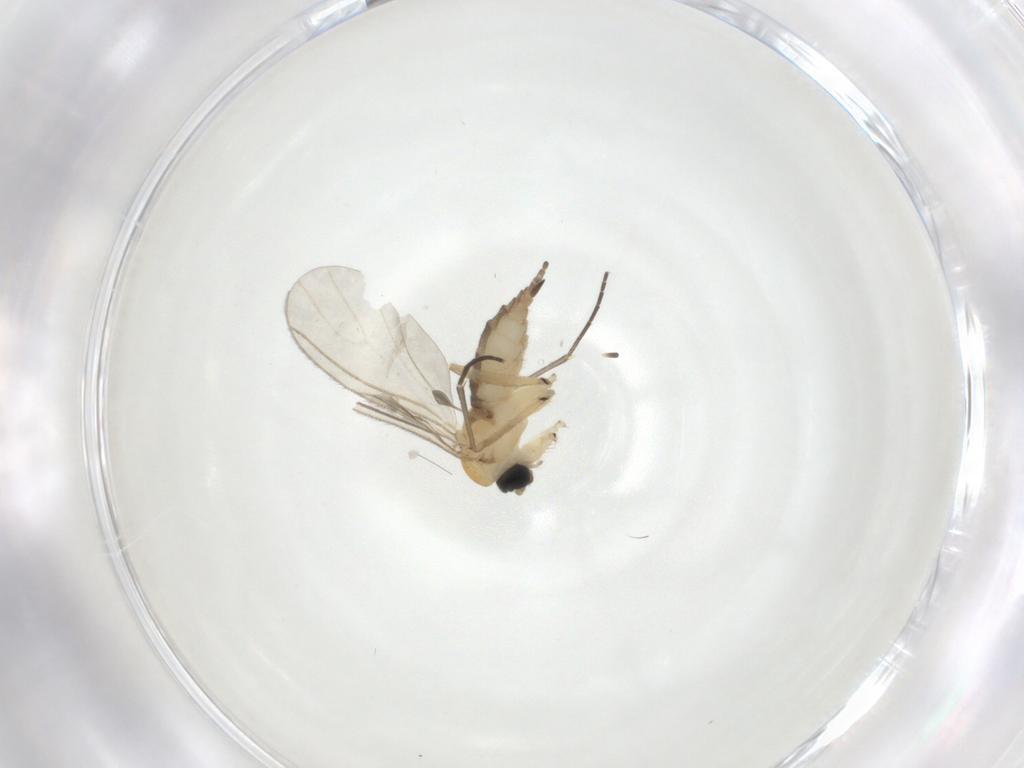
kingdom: Animalia
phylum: Arthropoda
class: Insecta
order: Diptera
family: Sciaridae
